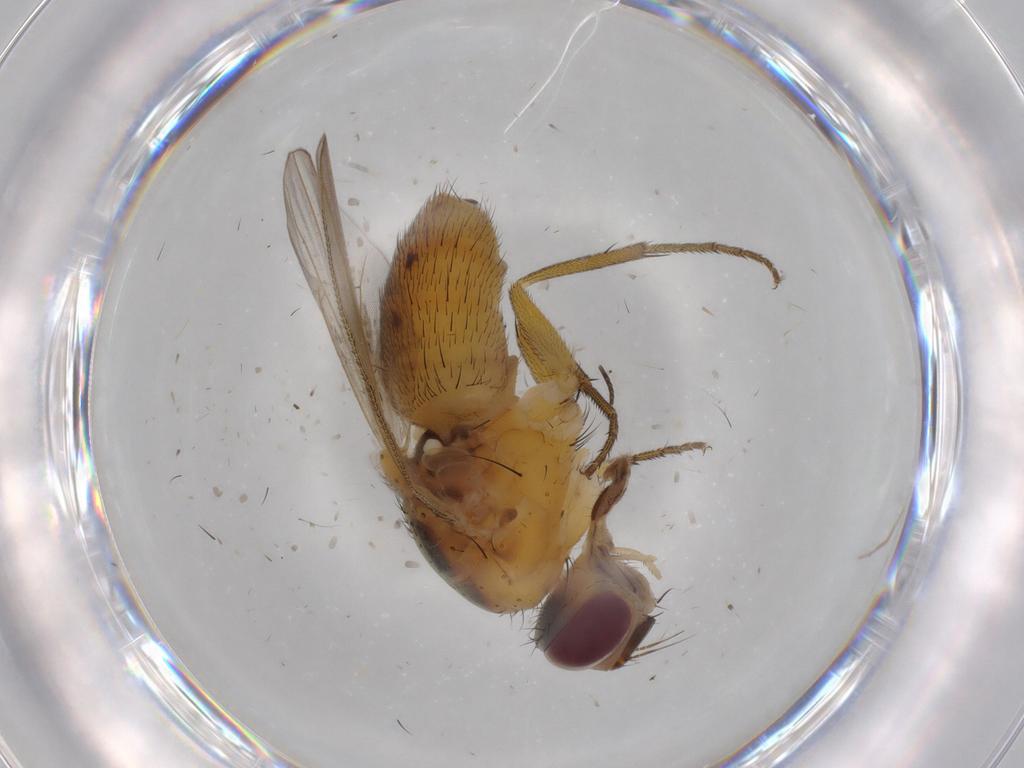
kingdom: Animalia
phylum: Arthropoda
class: Insecta
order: Diptera
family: Muscidae
